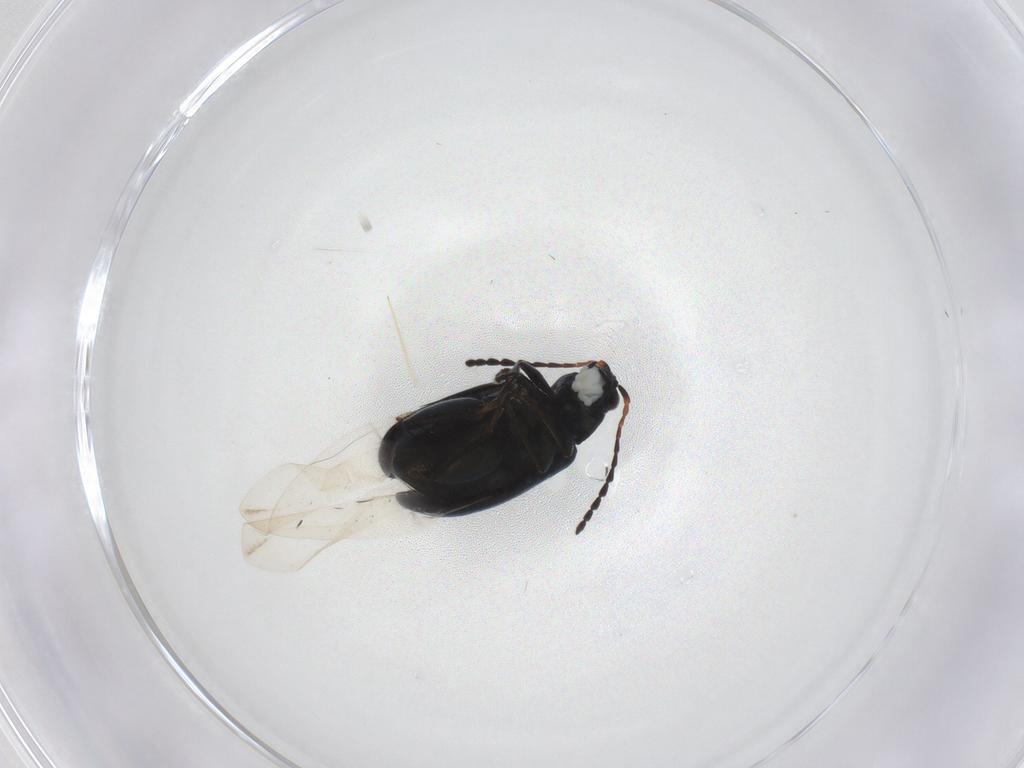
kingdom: Animalia
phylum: Arthropoda
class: Insecta
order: Coleoptera
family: Chrysomelidae
